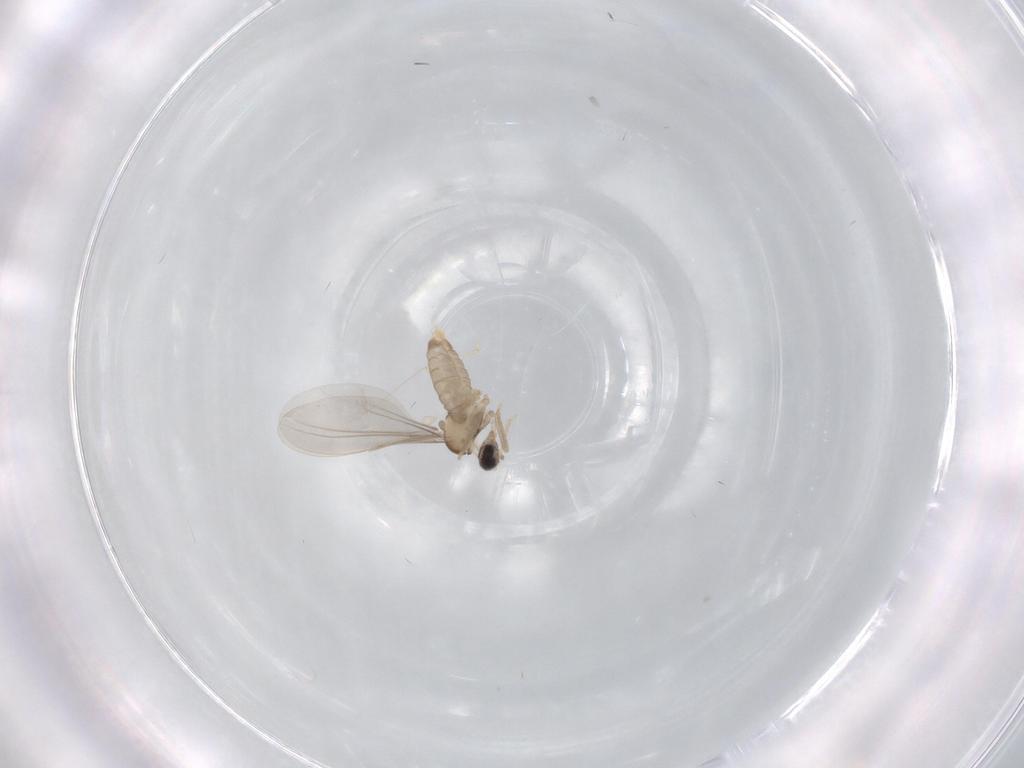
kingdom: Animalia
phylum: Arthropoda
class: Insecta
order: Diptera
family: Cecidomyiidae
